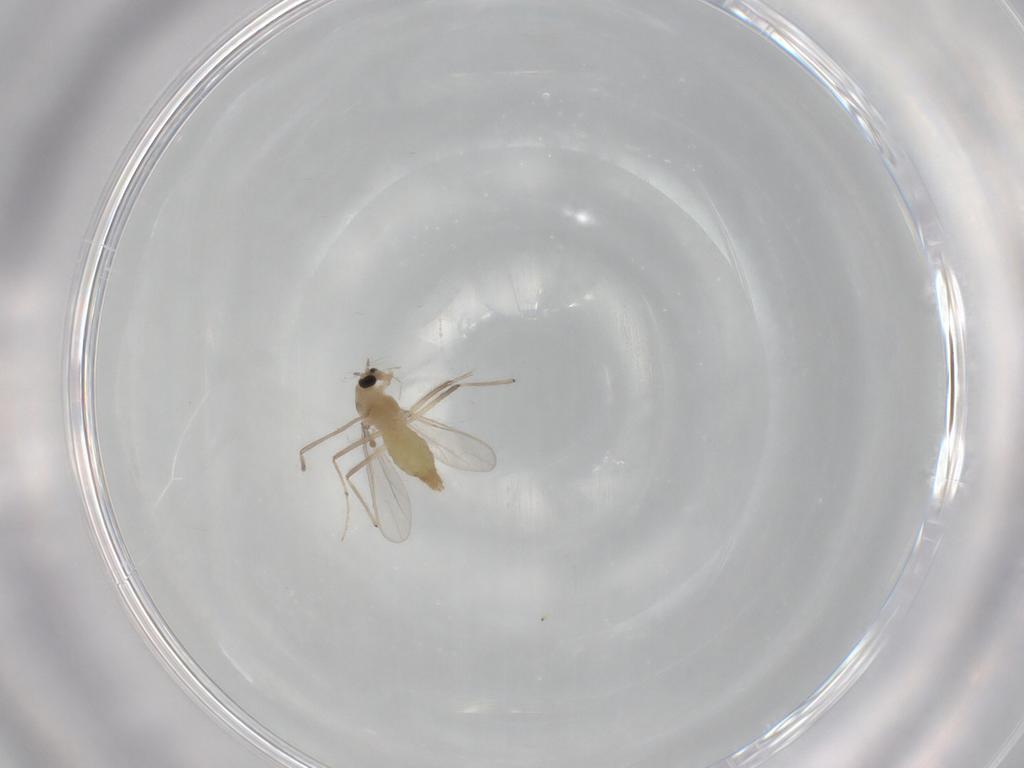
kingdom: Animalia
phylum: Arthropoda
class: Insecta
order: Diptera
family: Chironomidae
